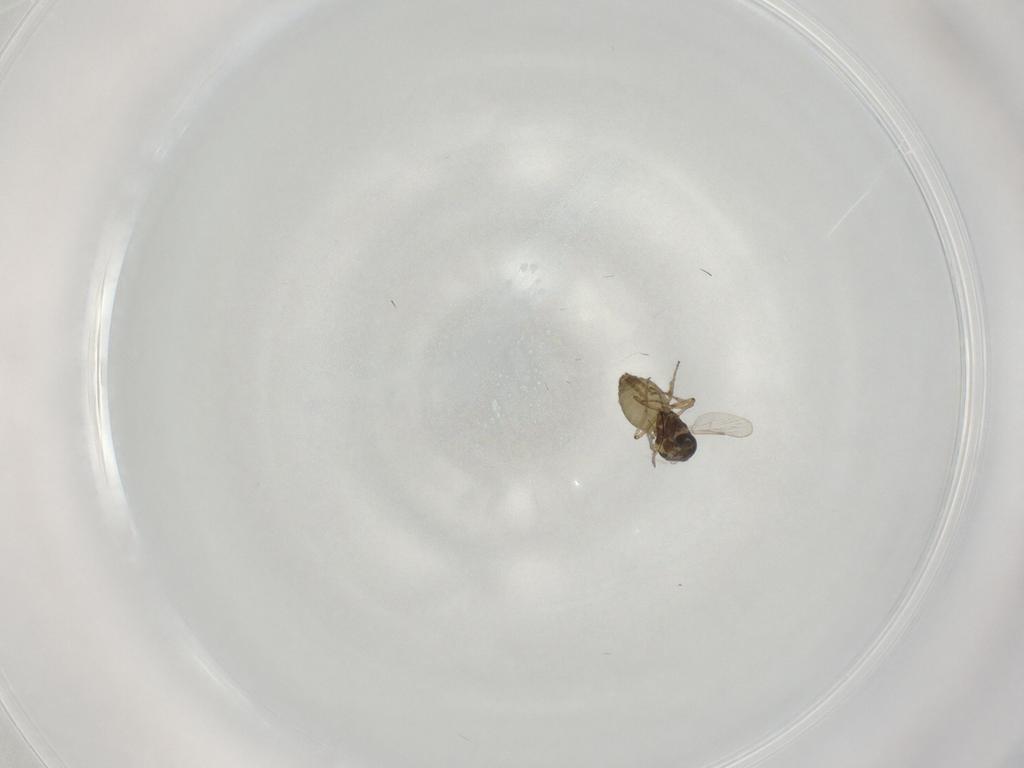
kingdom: Animalia
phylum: Arthropoda
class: Insecta
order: Diptera
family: Ceratopogonidae
